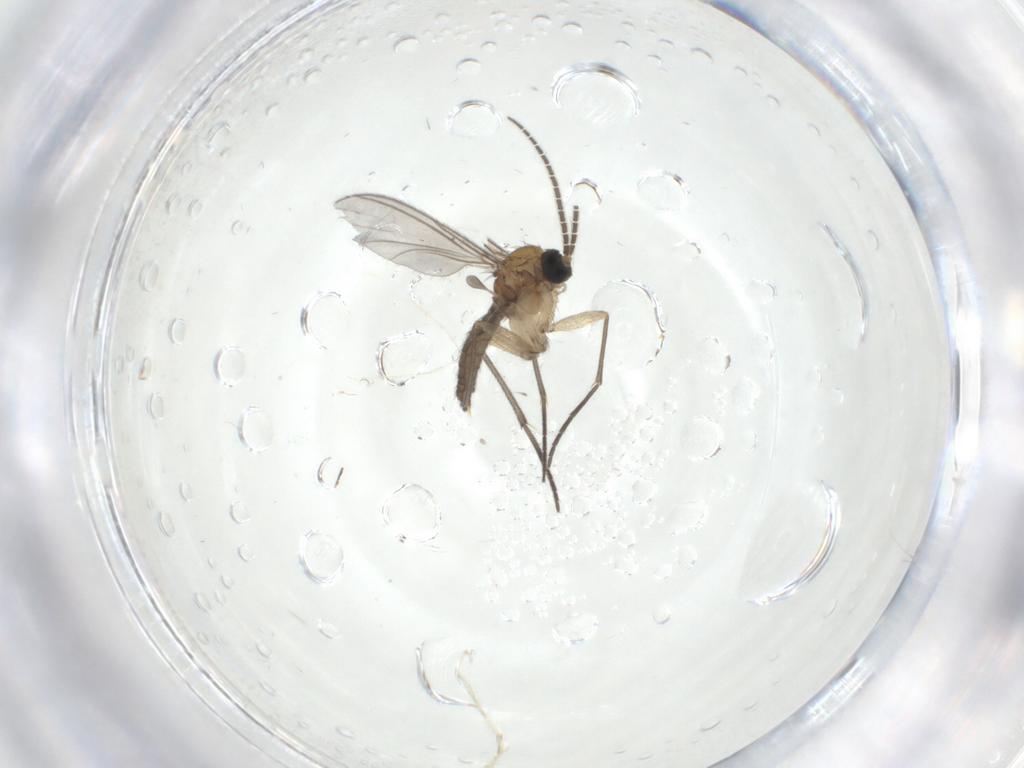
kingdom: Animalia
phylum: Arthropoda
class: Insecta
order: Diptera
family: Sciaridae
